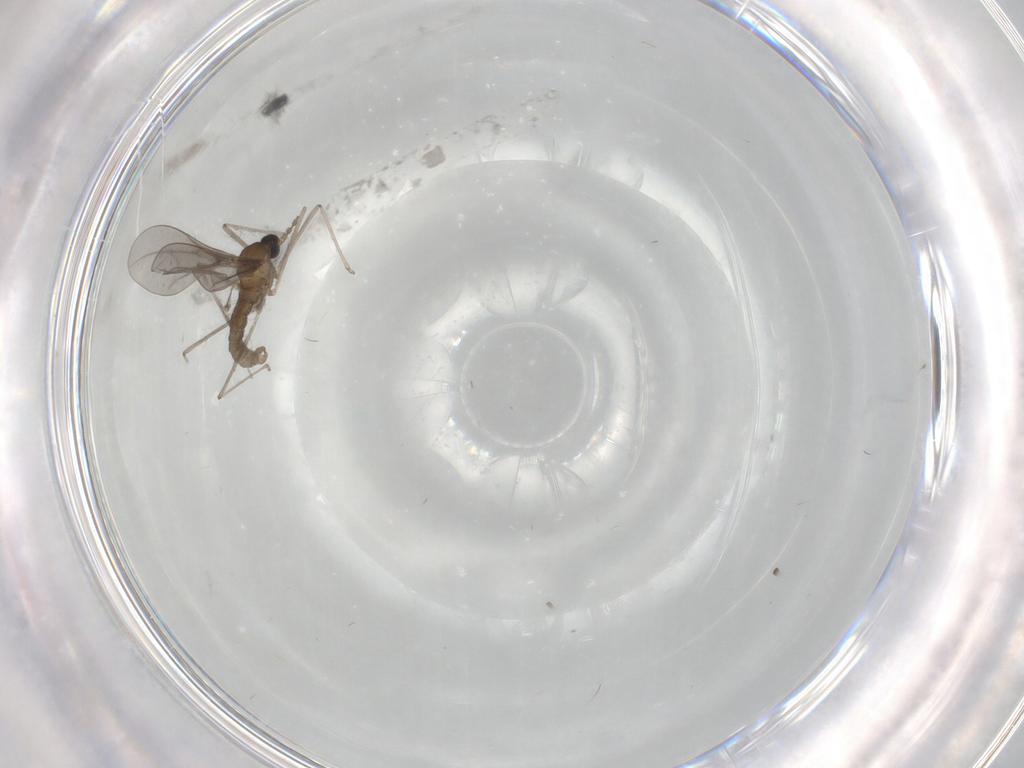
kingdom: Animalia
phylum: Arthropoda
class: Insecta
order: Diptera
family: Cecidomyiidae
